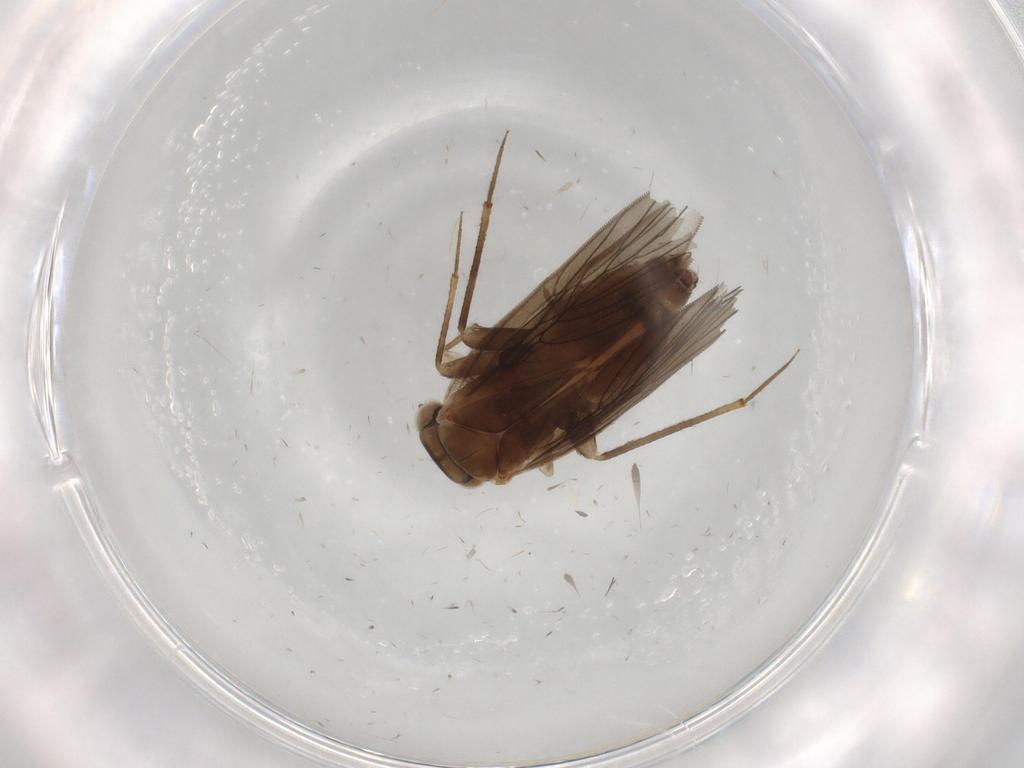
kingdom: Animalia
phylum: Arthropoda
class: Insecta
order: Psocodea
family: Lepidopsocidae
